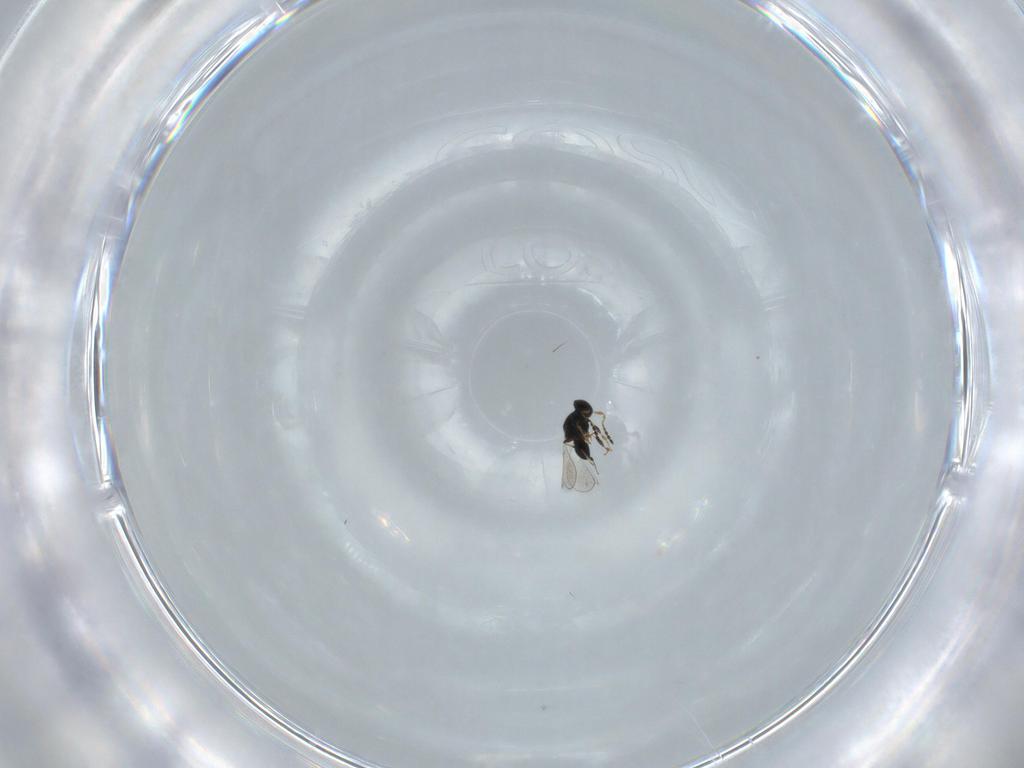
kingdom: Animalia
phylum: Arthropoda
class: Insecta
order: Hymenoptera
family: Platygastridae
